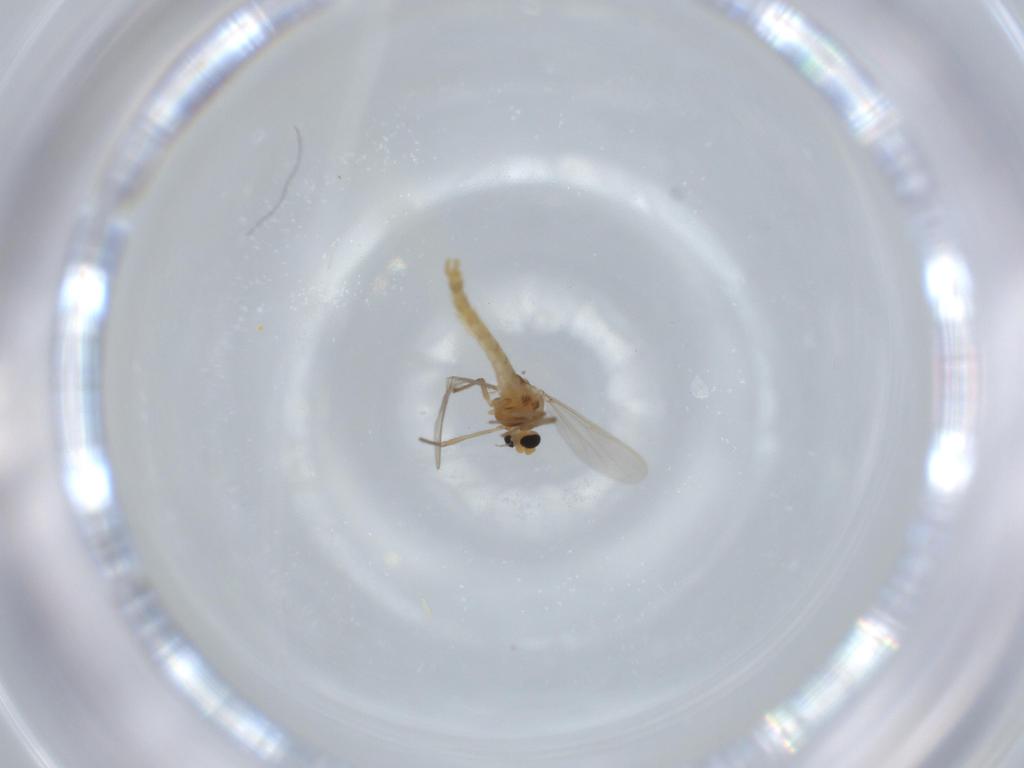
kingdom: Animalia
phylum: Arthropoda
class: Insecta
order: Diptera
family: Chironomidae
